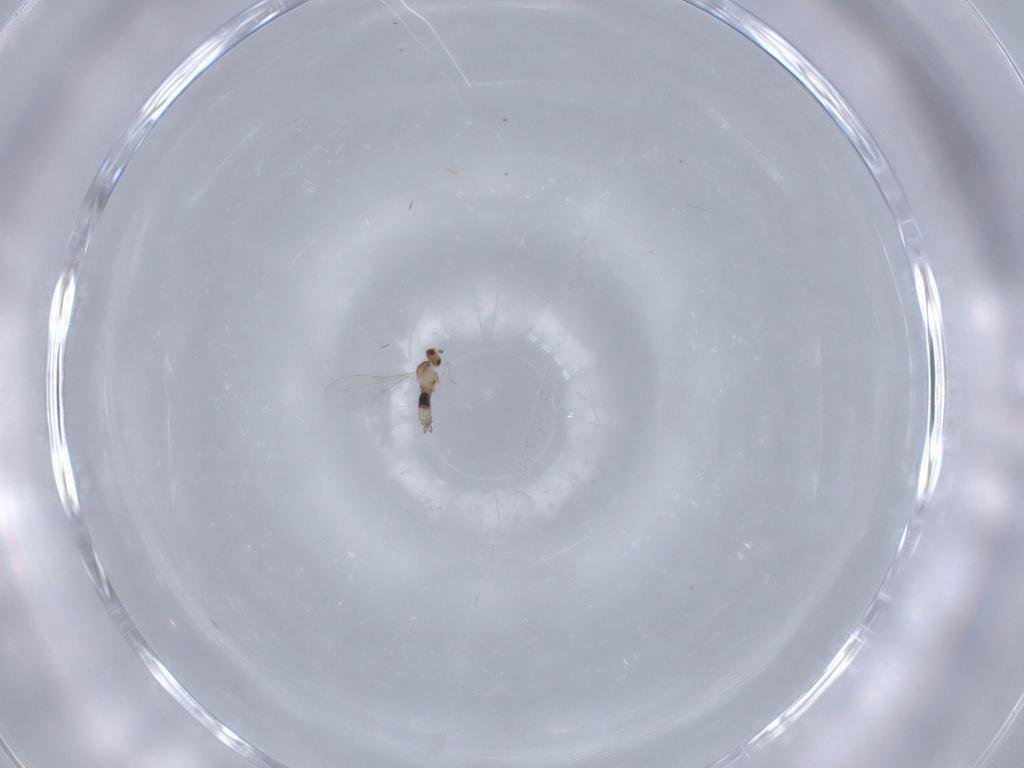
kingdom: Animalia
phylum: Arthropoda
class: Insecta
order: Diptera
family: Cecidomyiidae
